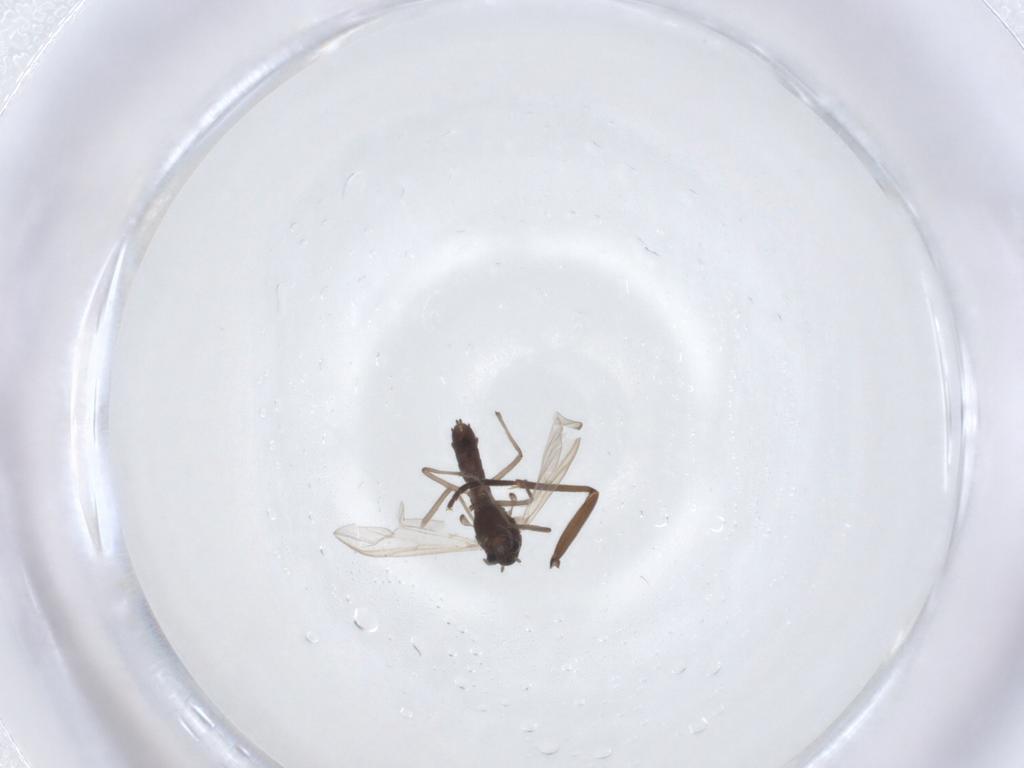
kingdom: Animalia
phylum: Arthropoda
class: Insecta
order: Diptera
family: Sciaridae
